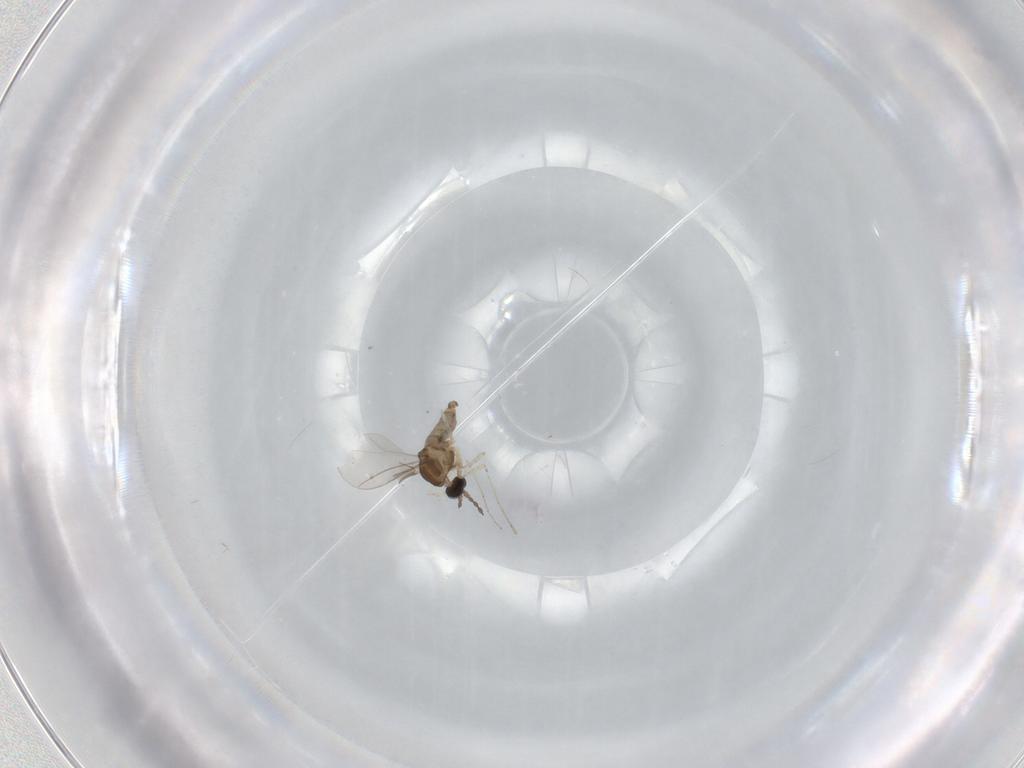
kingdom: Animalia
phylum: Arthropoda
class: Insecta
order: Diptera
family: Cecidomyiidae
